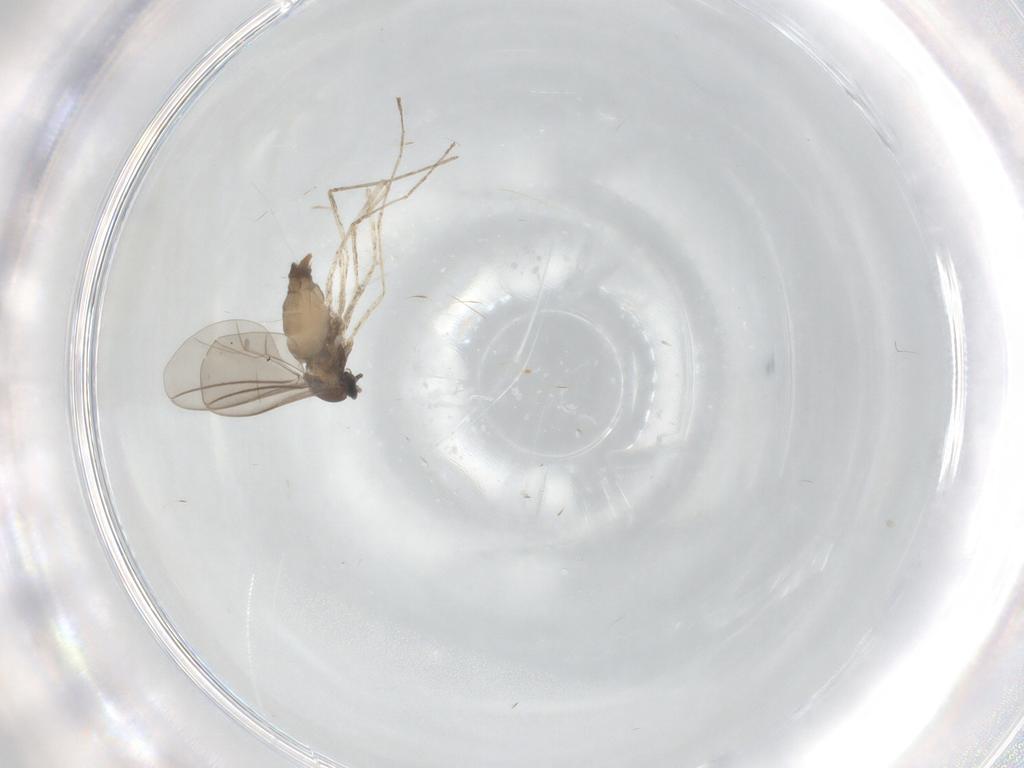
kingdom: Animalia
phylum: Arthropoda
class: Insecta
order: Diptera
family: Cecidomyiidae
